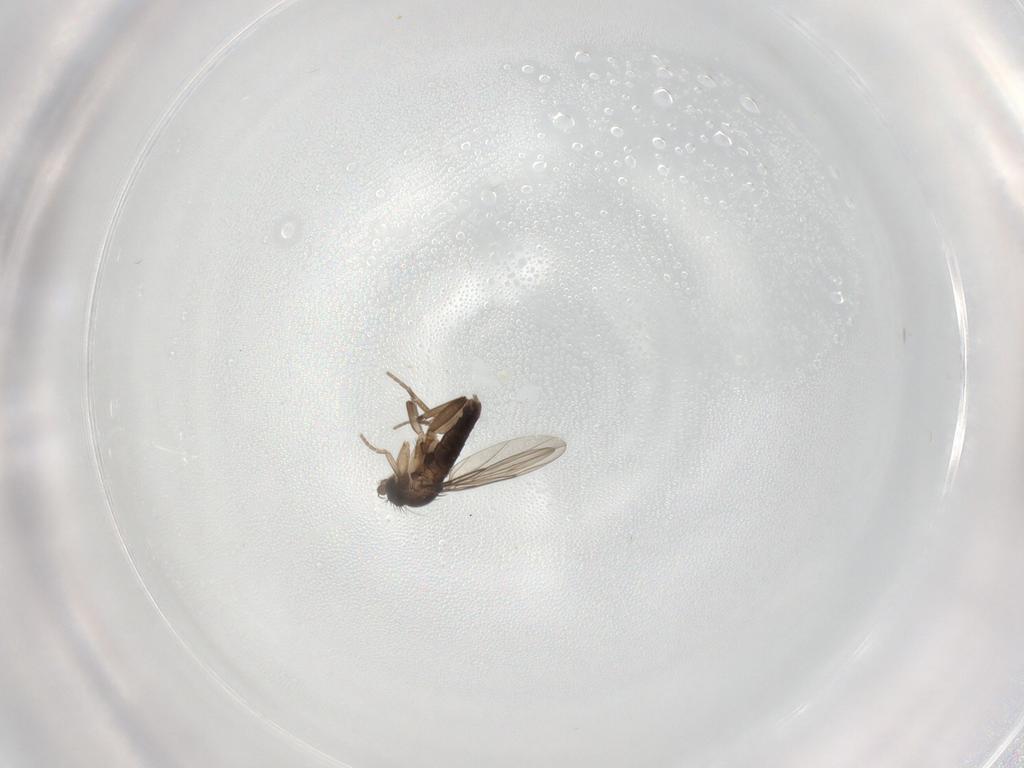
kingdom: Animalia
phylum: Arthropoda
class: Insecta
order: Diptera
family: Phoridae
